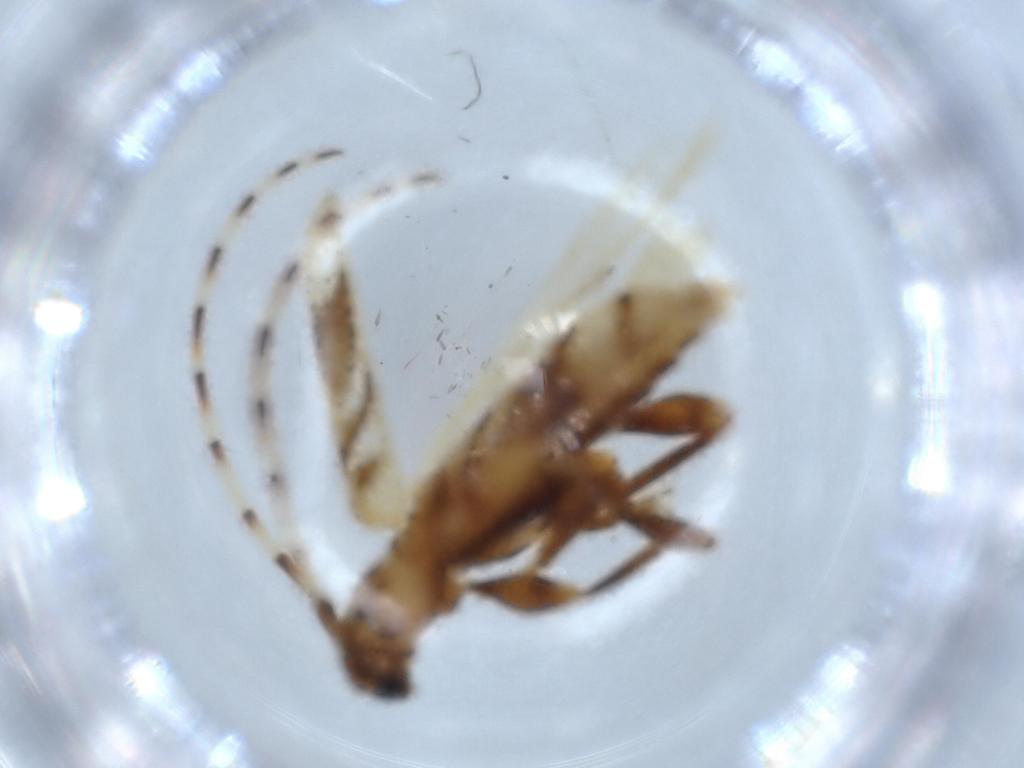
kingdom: Animalia
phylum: Arthropoda
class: Insecta
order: Coleoptera
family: Cerambycidae
